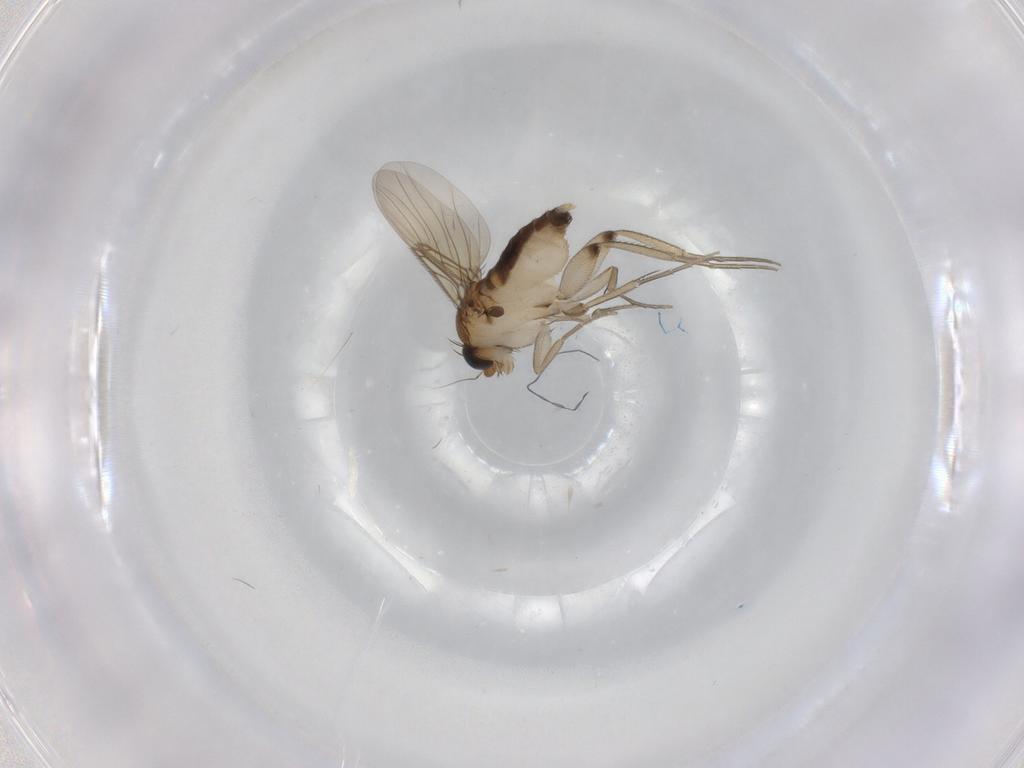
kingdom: Animalia
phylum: Arthropoda
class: Insecta
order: Diptera
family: Phoridae
